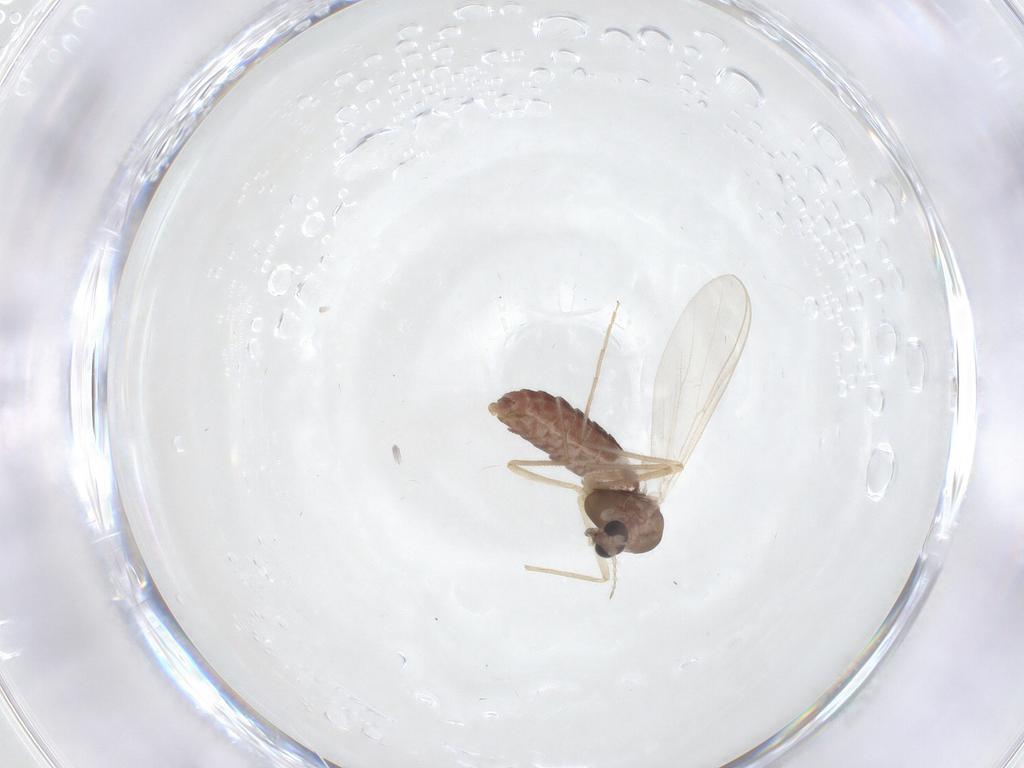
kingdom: Animalia
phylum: Arthropoda
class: Insecta
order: Diptera
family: Chironomidae
